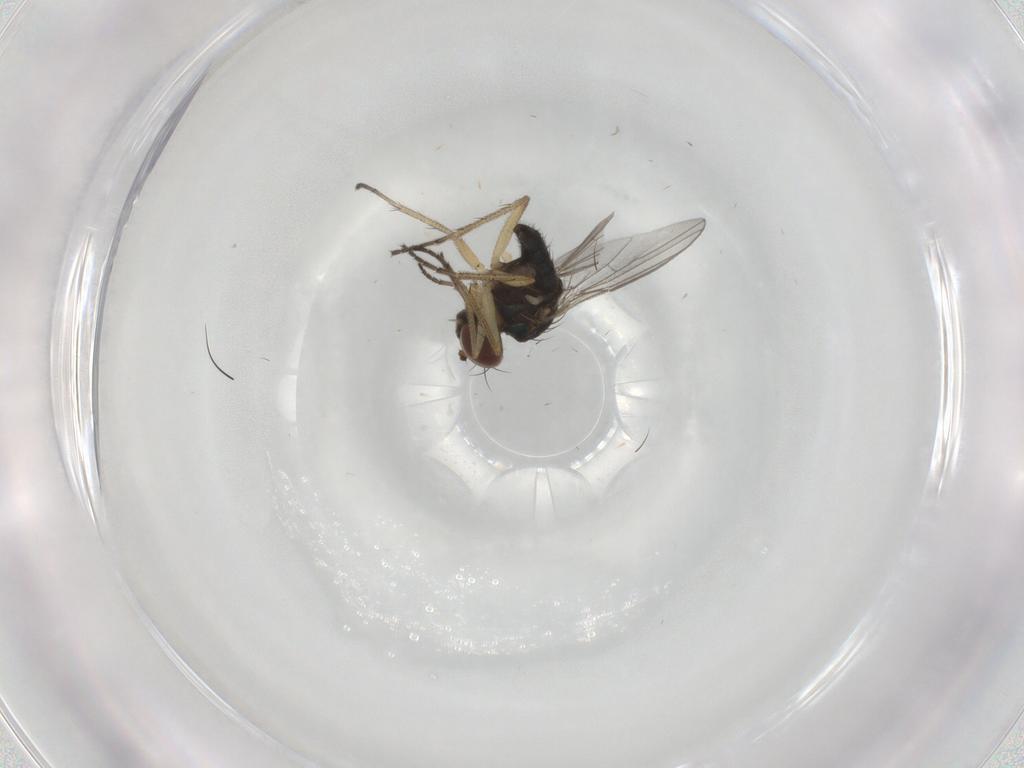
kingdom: Animalia
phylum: Arthropoda
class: Insecta
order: Diptera
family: Dolichopodidae
